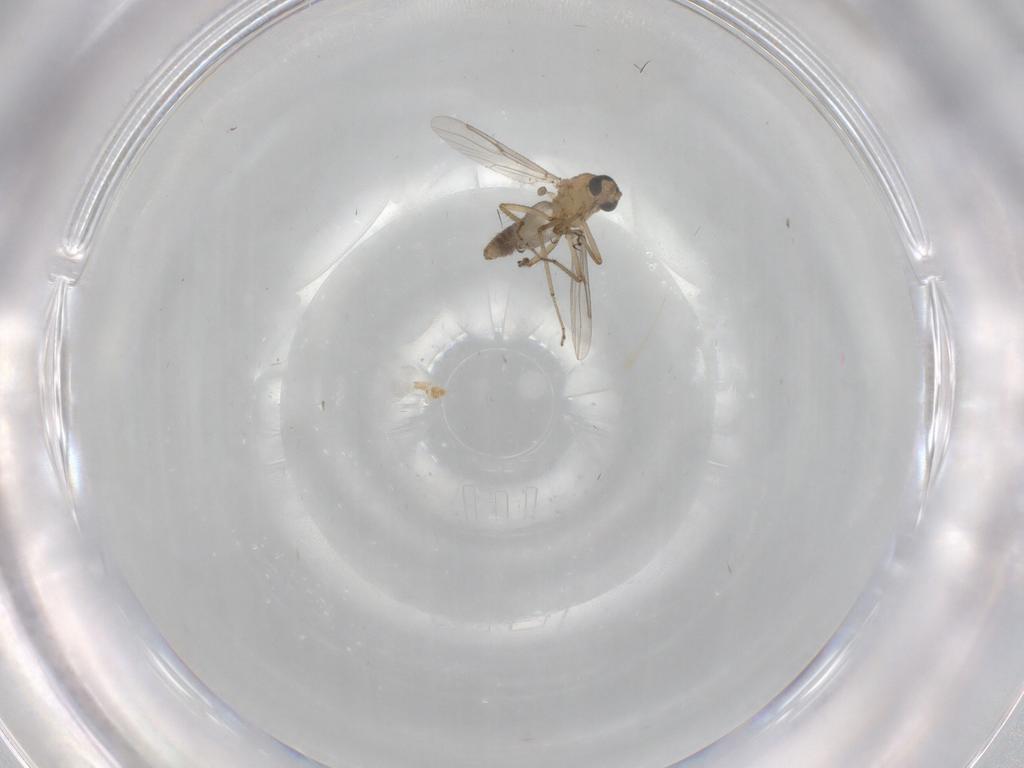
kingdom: Animalia
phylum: Arthropoda
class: Insecta
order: Diptera
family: Ceratopogonidae
